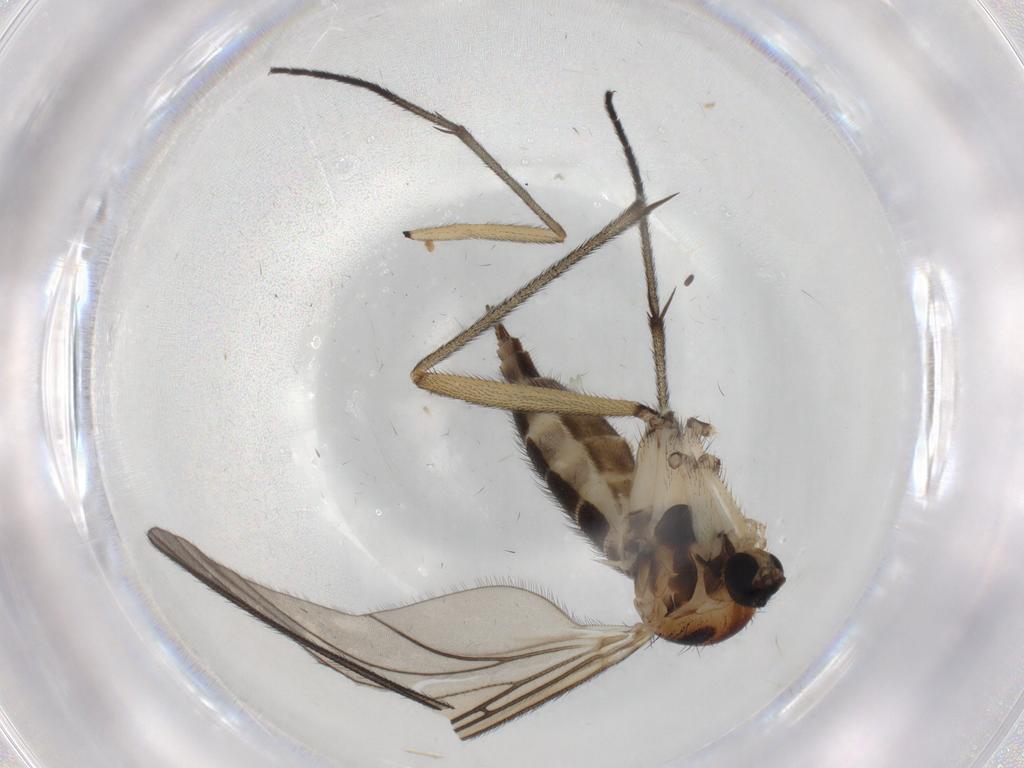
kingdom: Animalia
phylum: Arthropoda
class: Insecta
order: Diptera
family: Sciaridae
